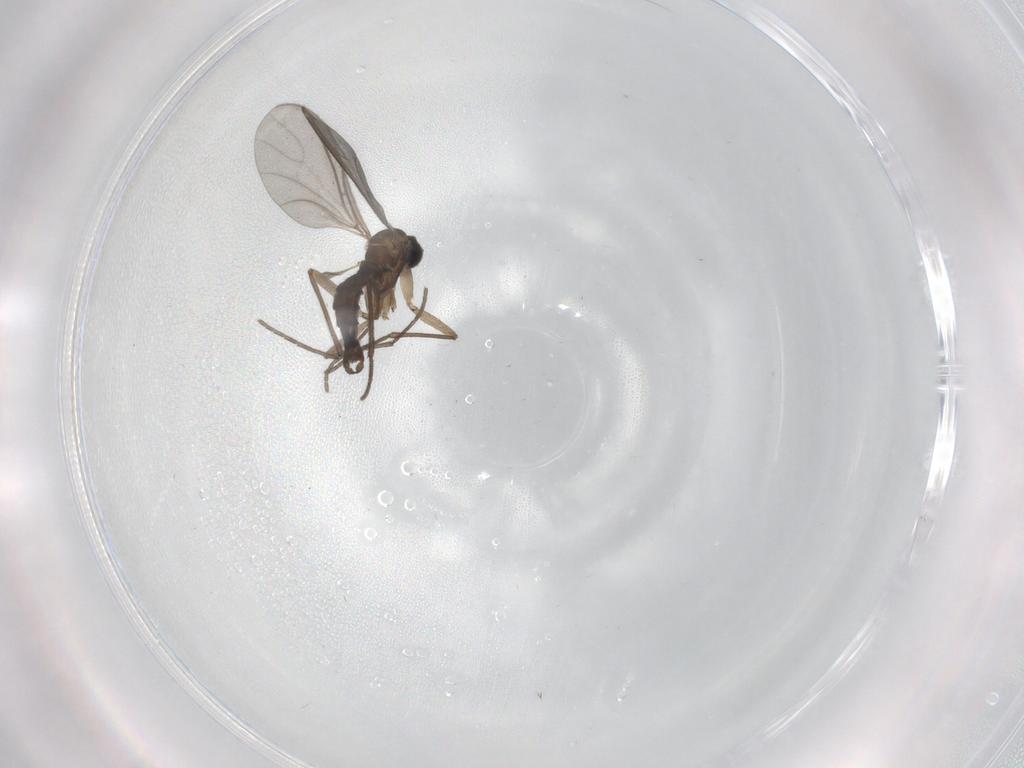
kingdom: Animalia
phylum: Arthropoda
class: Insecta
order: Diptera
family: Sciaridae
